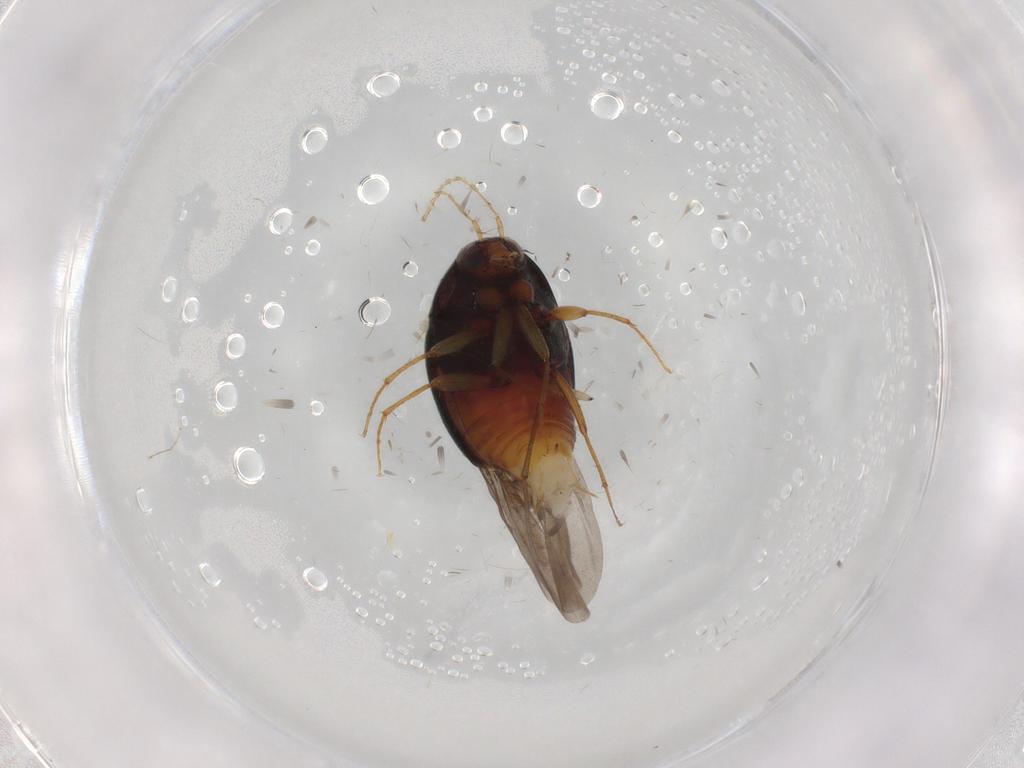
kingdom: Animalia
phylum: Arthropoda
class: Insecta
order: Coleoptera
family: Staphylinidae
